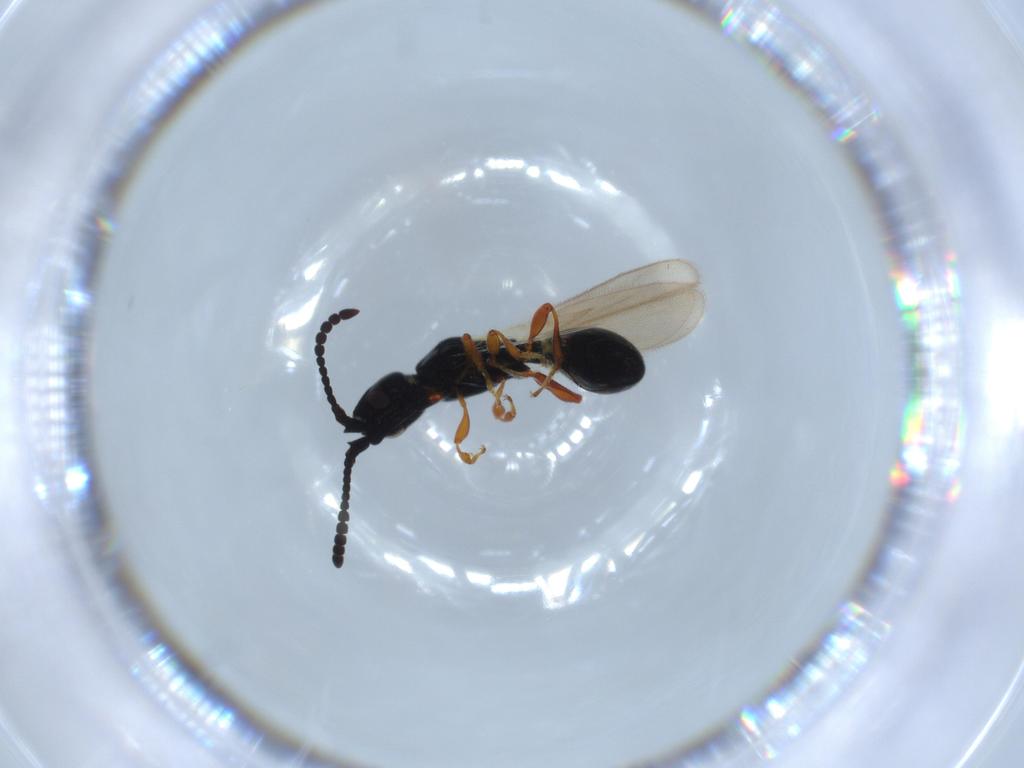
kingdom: Animalia
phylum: Arthropoda
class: Insecta
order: Hymenoptera
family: Diapriidae
